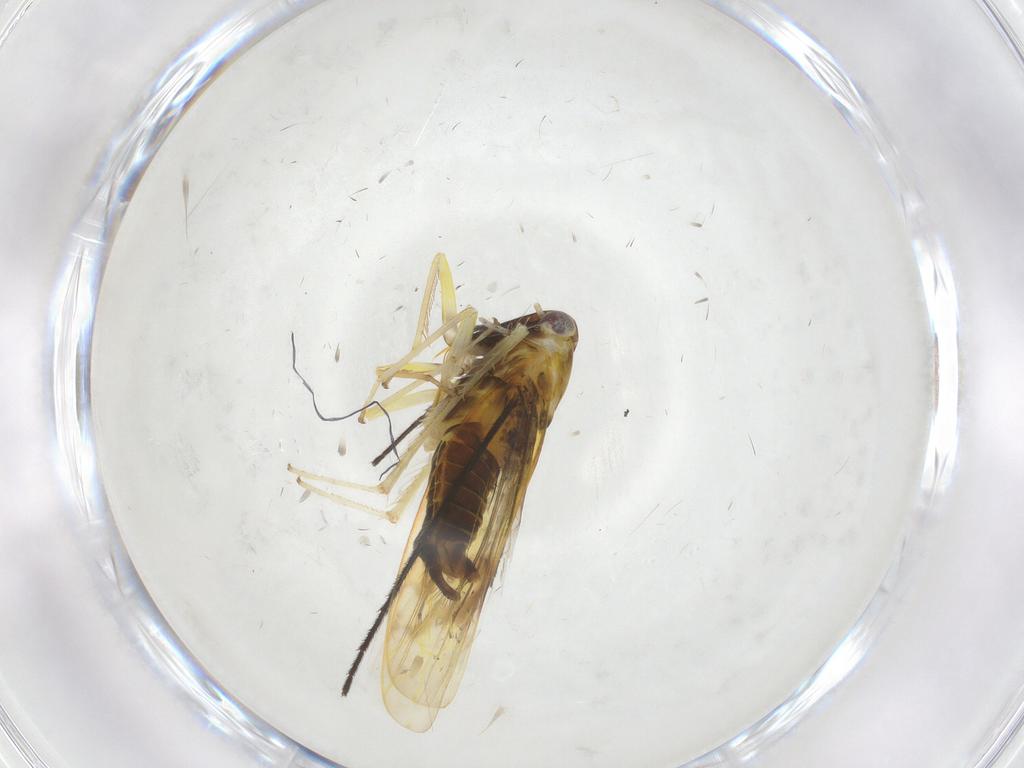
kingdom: Animalia
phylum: Arthropoda
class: Insecta
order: Hemiptera
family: Cicadellidae
